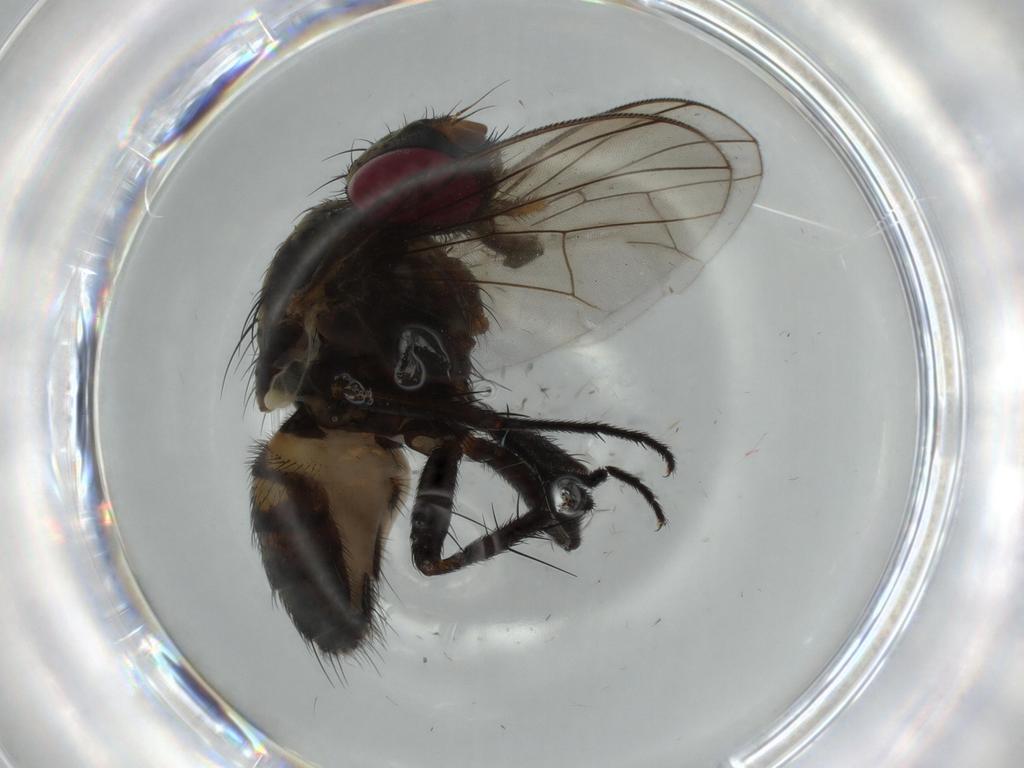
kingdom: Animalia
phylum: Arthropoda
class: Insecta
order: Diptera
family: Fannia
